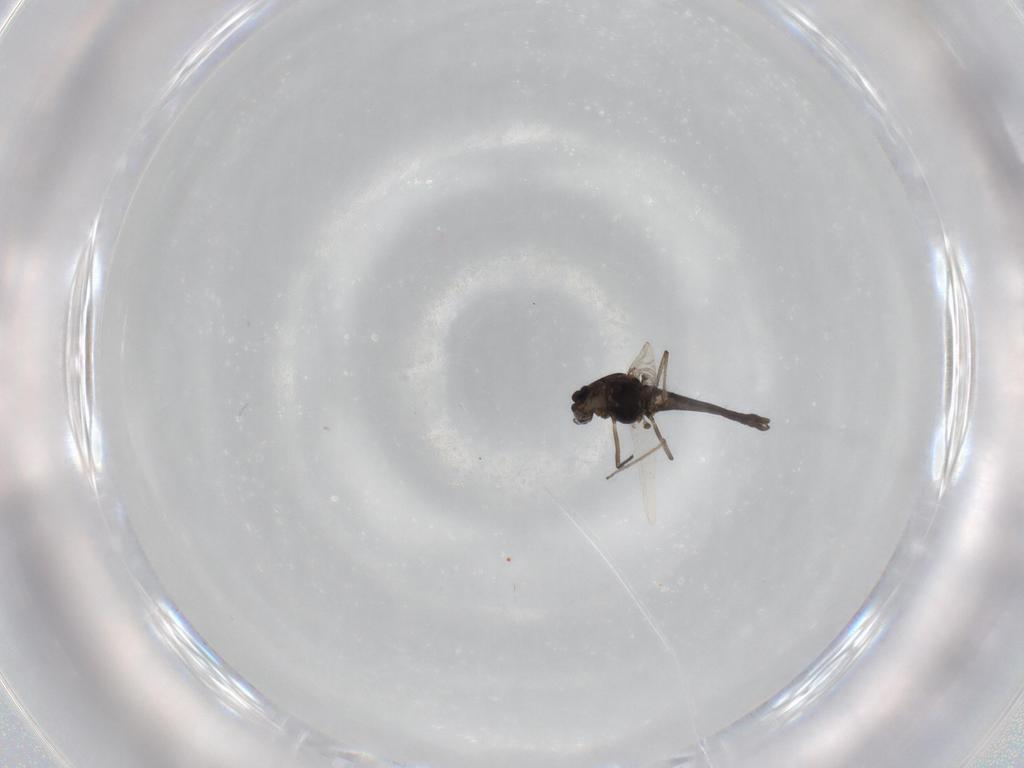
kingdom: Animalia
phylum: Arthropoda
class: Insecta
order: Diptera
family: Chironomidae
